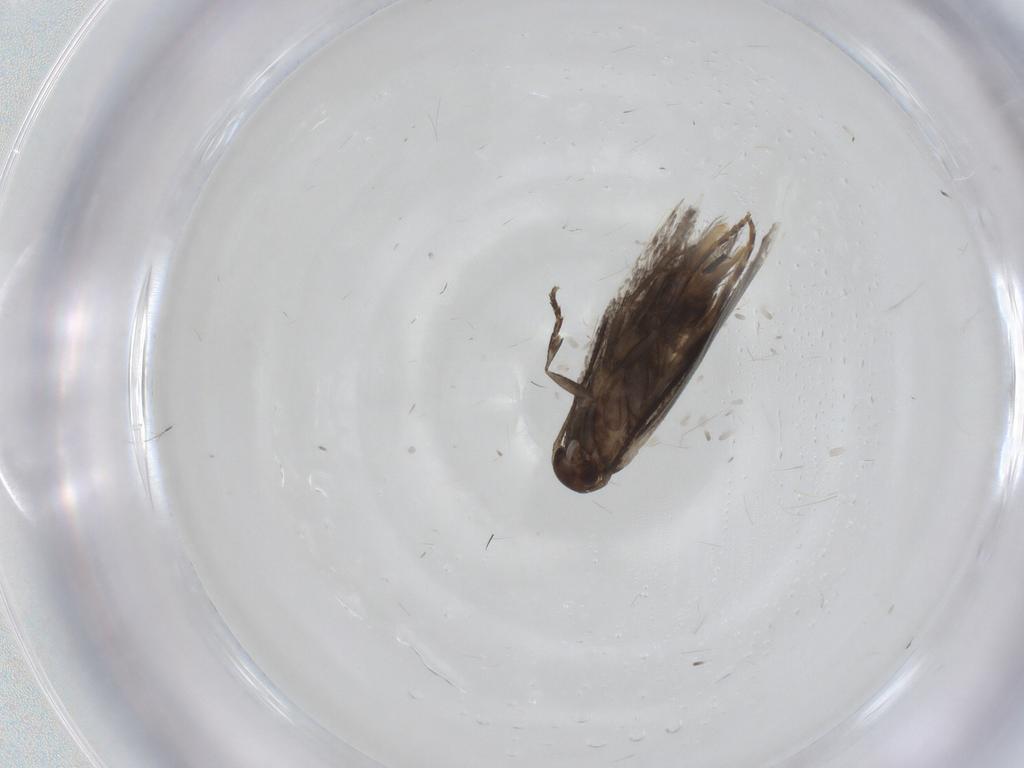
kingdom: Animalia
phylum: Arthropoda
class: Insecta
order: Lepidoptera
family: Elachistidae
